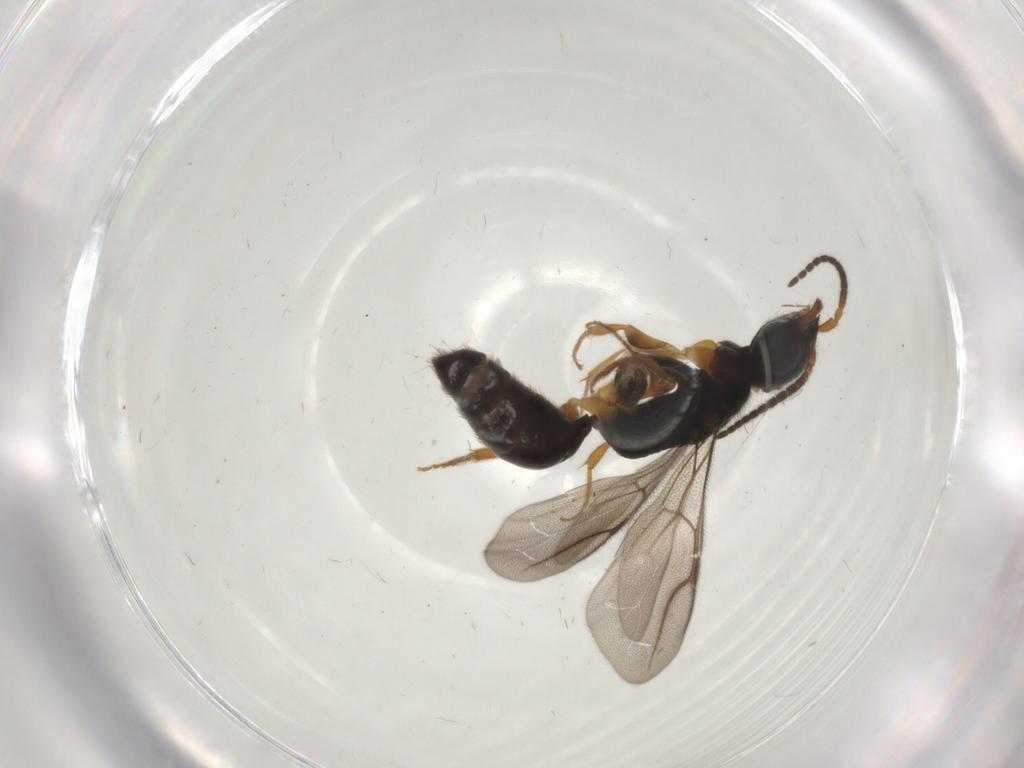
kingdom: Animalia
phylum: Arthropoda
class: Insecta
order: Hymenoptera
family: Bethylidae
